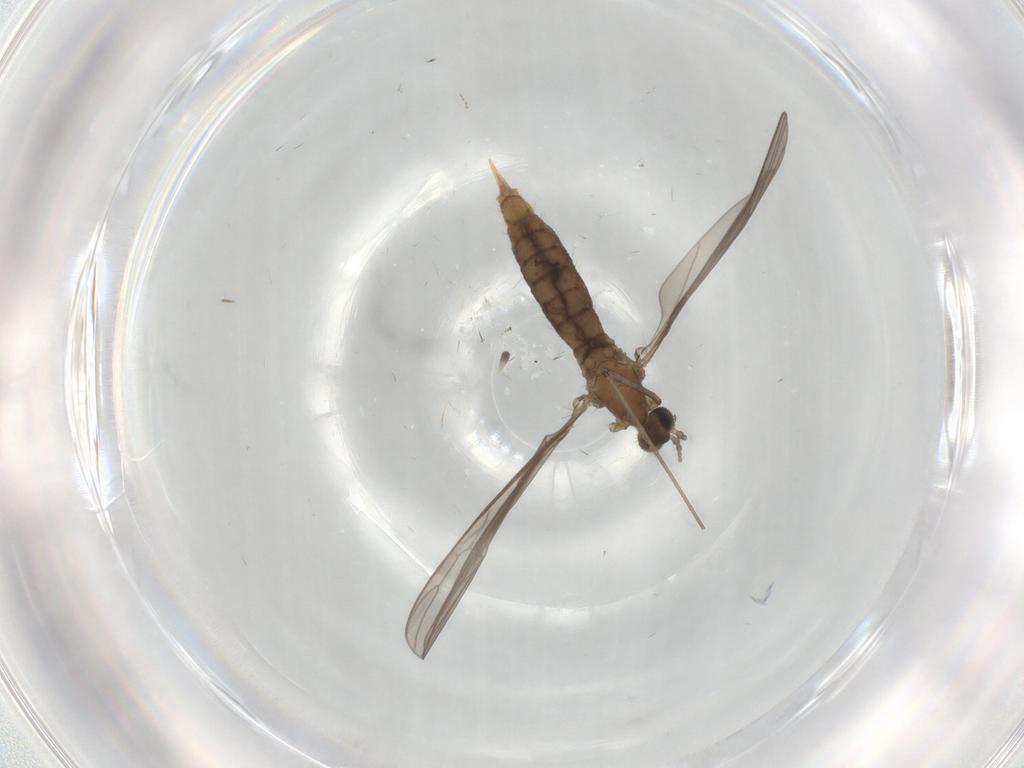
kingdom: Animalia
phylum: Arthropoda
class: Insecta
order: Diptera
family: Limoniidae
